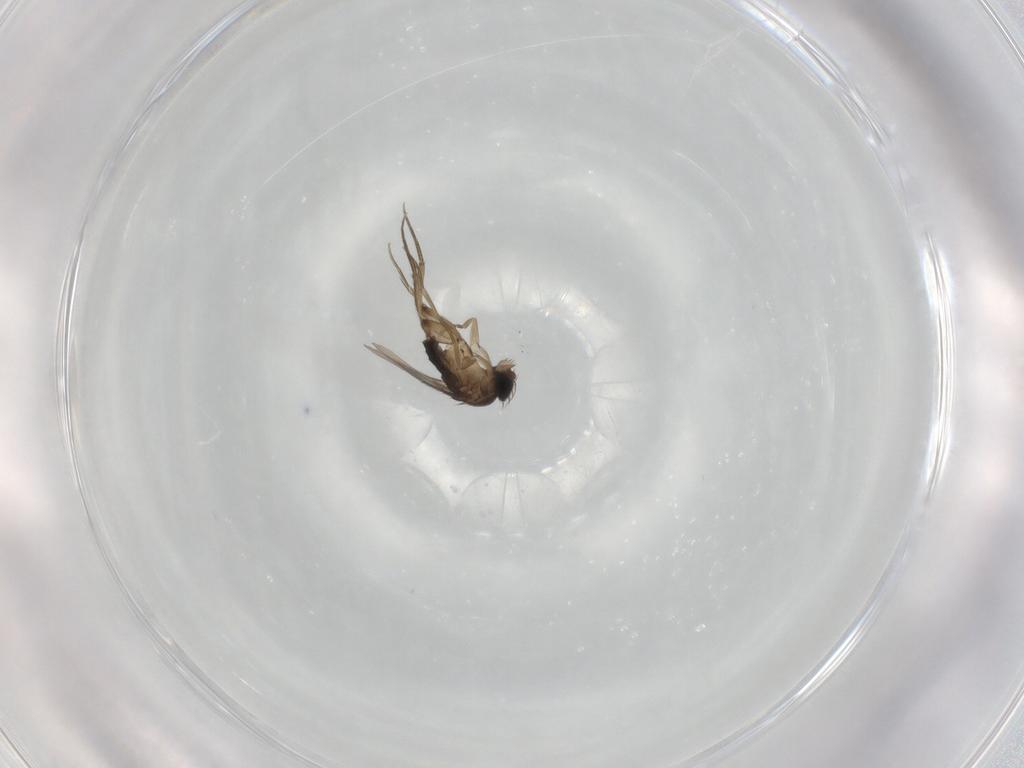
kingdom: Animalia
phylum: Arthropoda
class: Insecta
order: Diptera
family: Phoridae
